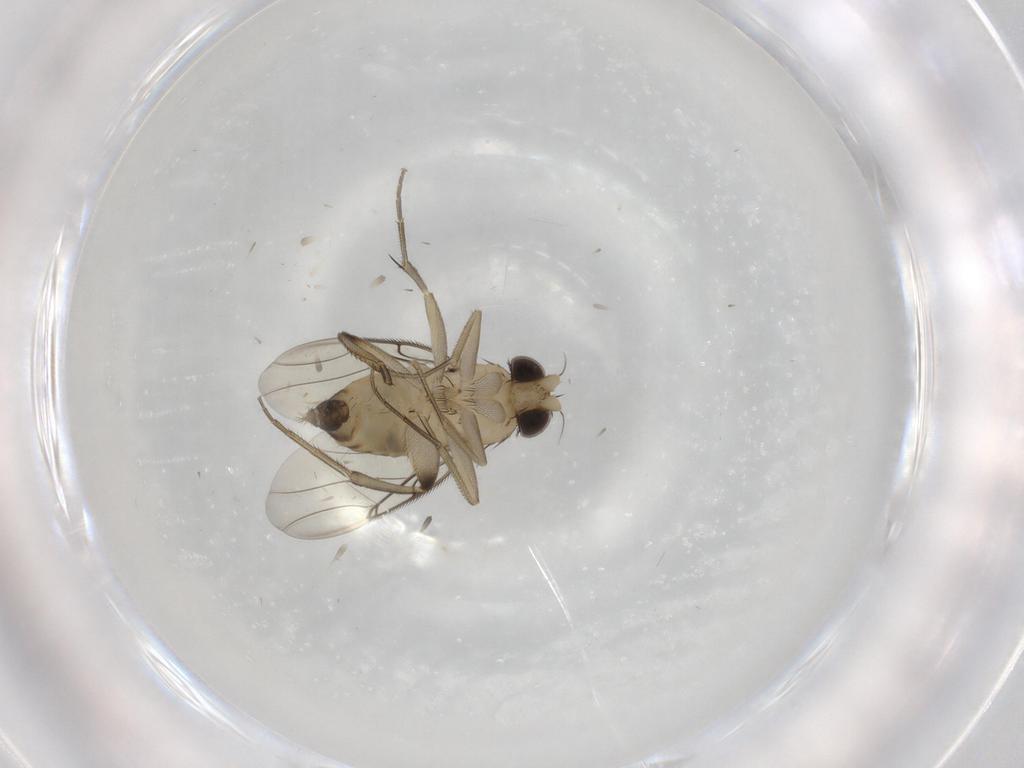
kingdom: Animalia
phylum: Arthropoda
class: Insecta
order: Diptera
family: Phoridae
